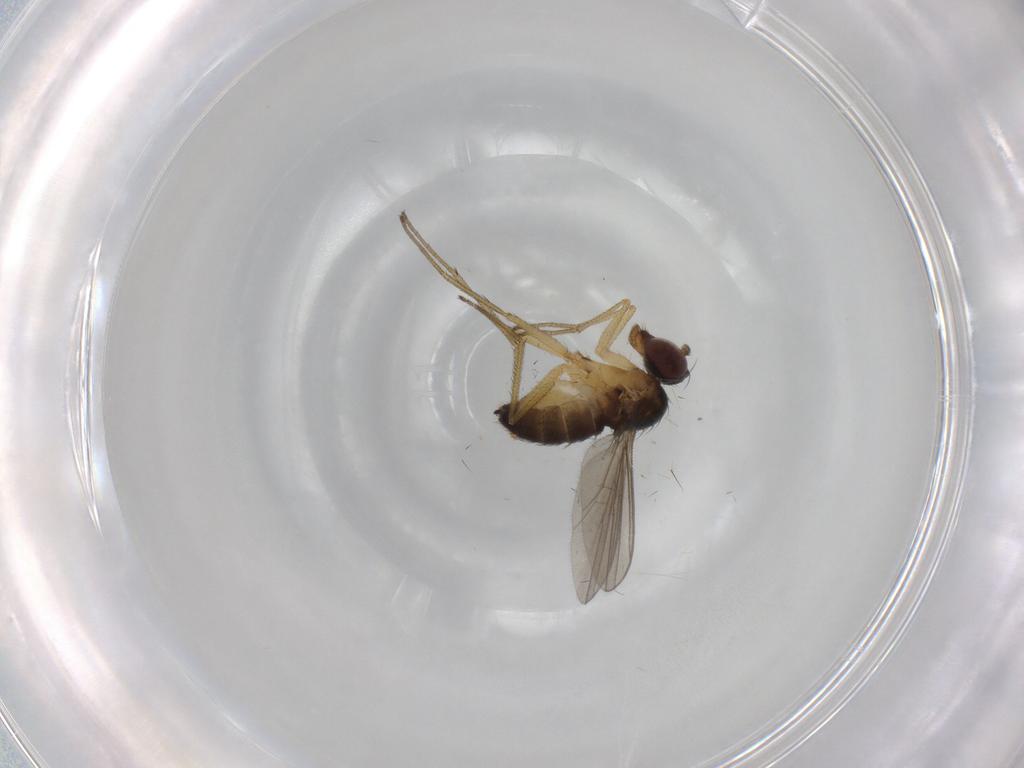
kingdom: Animalia
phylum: Arthropoda
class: Insecta
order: Diptera
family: Dolichopodidae
